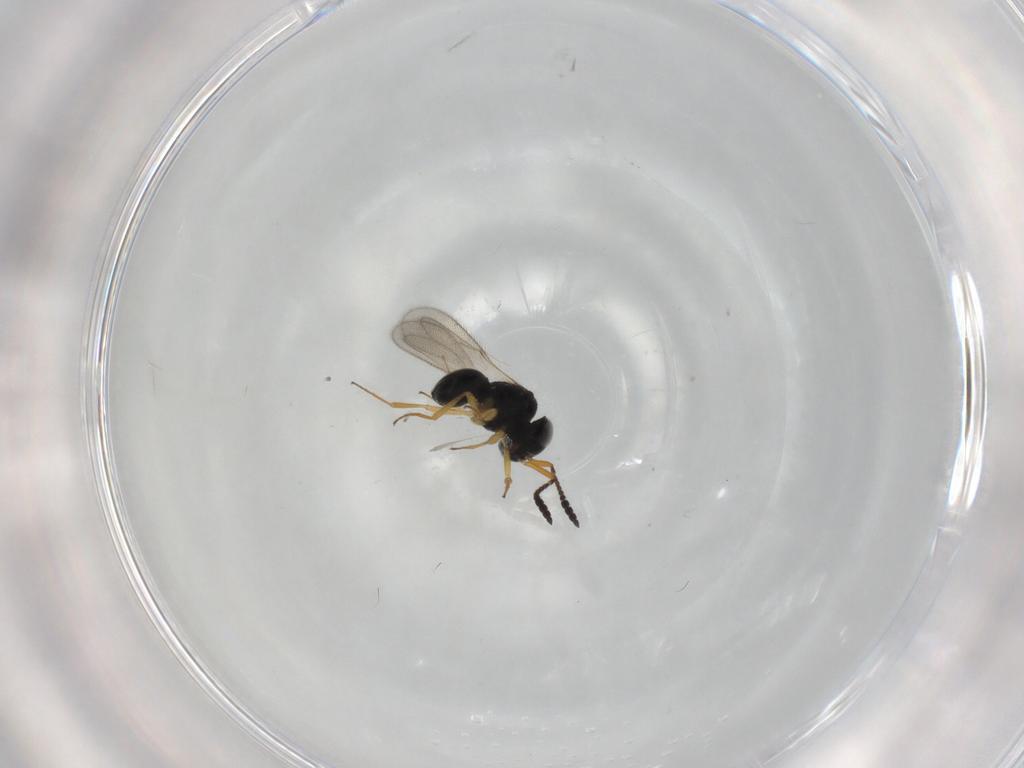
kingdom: Animalia
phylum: Arthropoda
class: Insecta
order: Hymenoptera
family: Scelionidae
